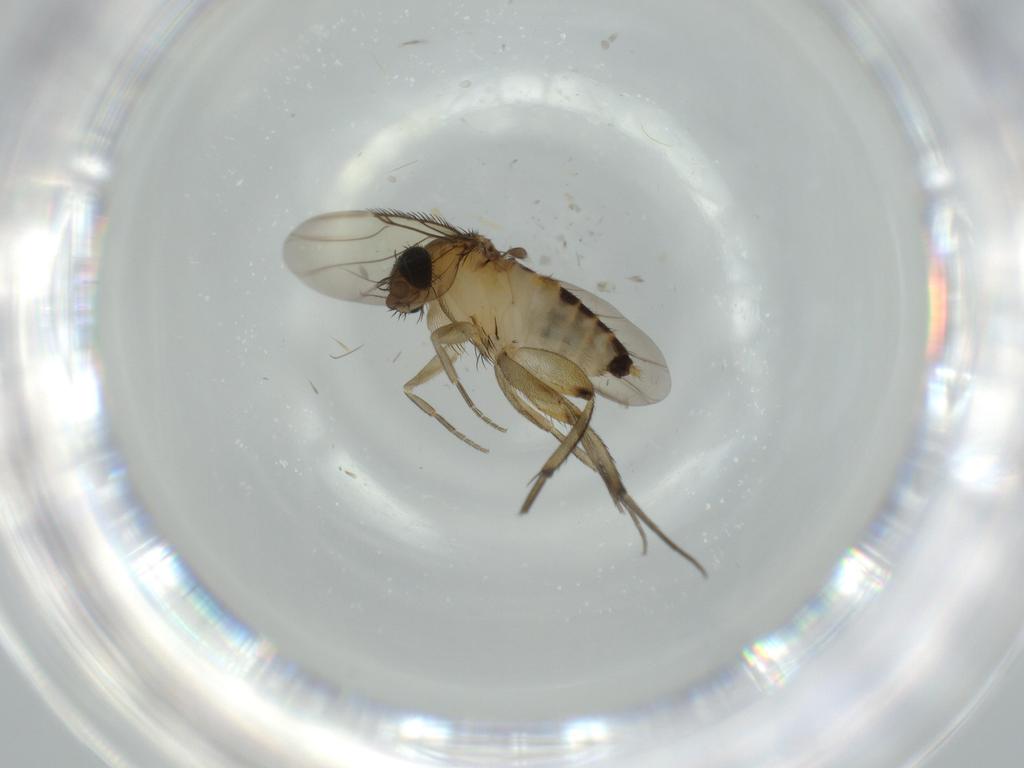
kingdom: Animalia
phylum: Arthropoda
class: Insecta
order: Diptera
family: Phoridae
